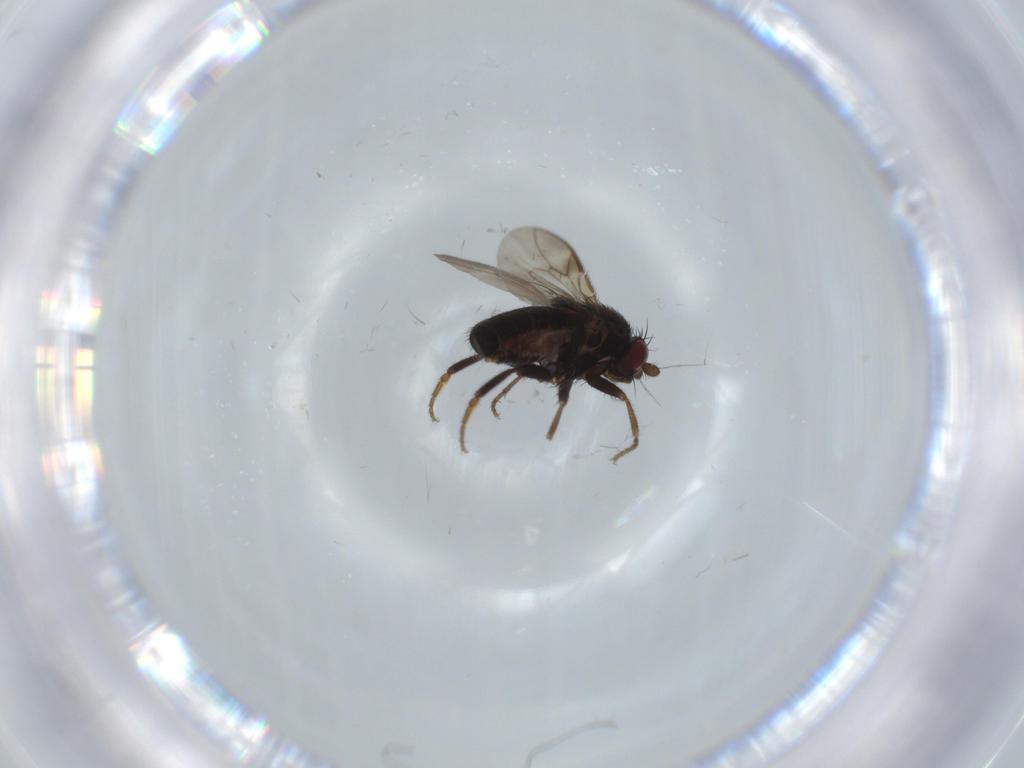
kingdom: Animalia
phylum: Arthropoda
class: Insecta
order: Diptera
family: Sphaeroceridae
